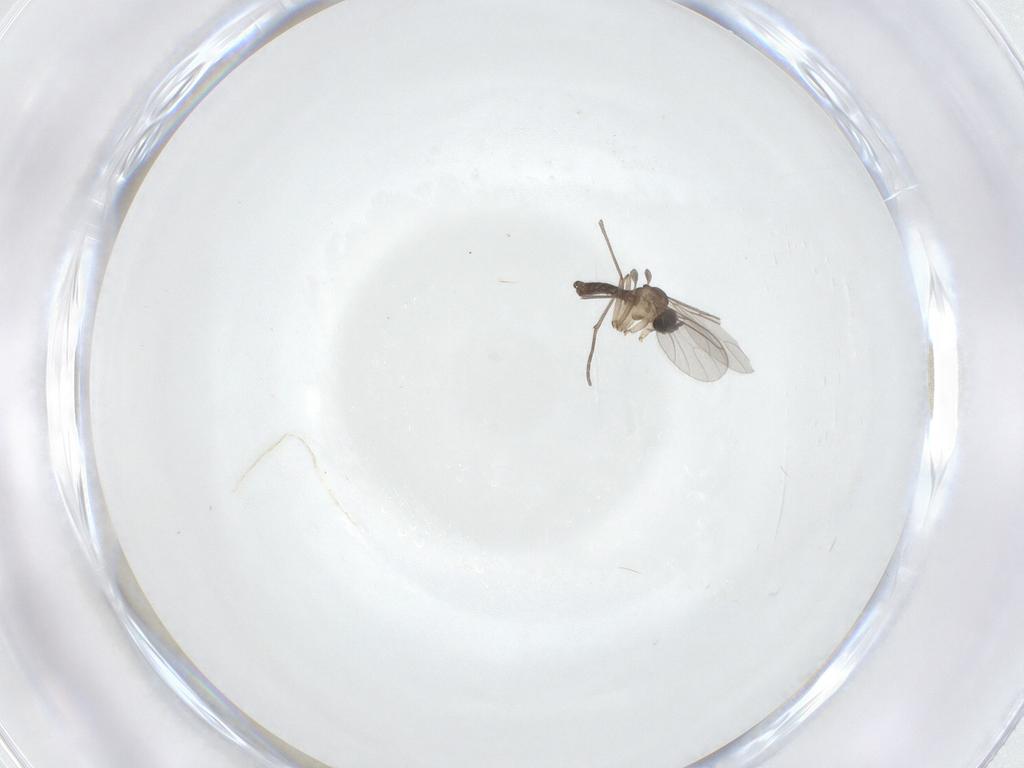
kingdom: Animalia
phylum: Arthropoda
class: Insecta
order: Diptera
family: Sciaridae
